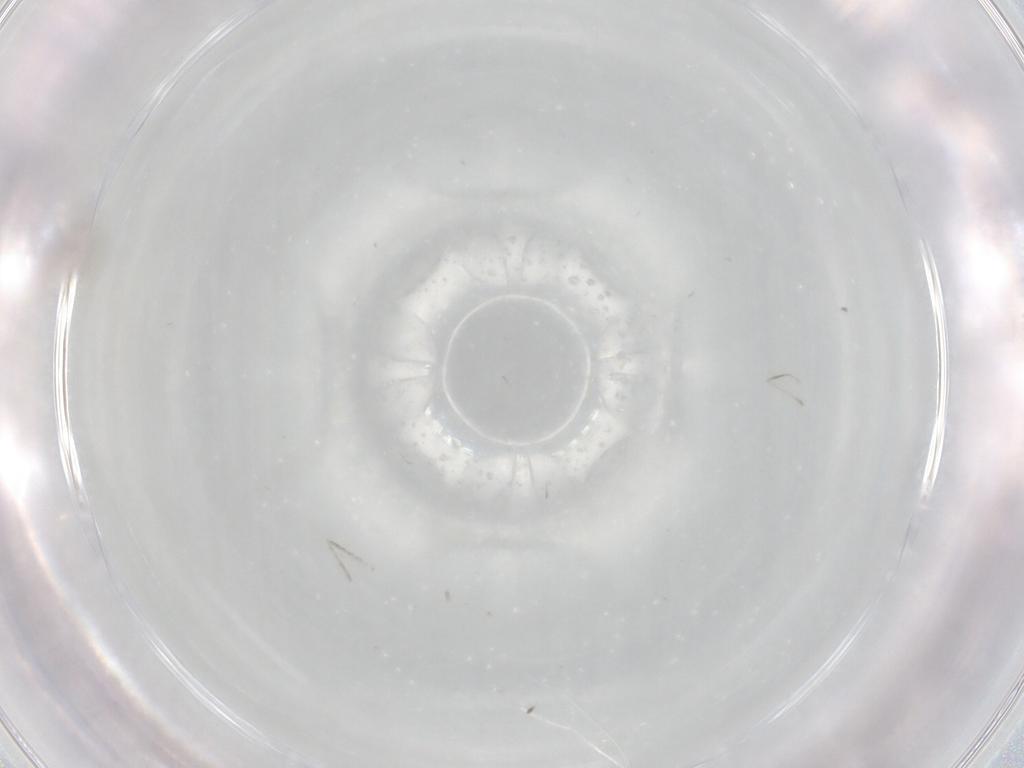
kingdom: Animalia
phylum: Arthropoda
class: Insecta
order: Diptera
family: Cecidomyiidae
